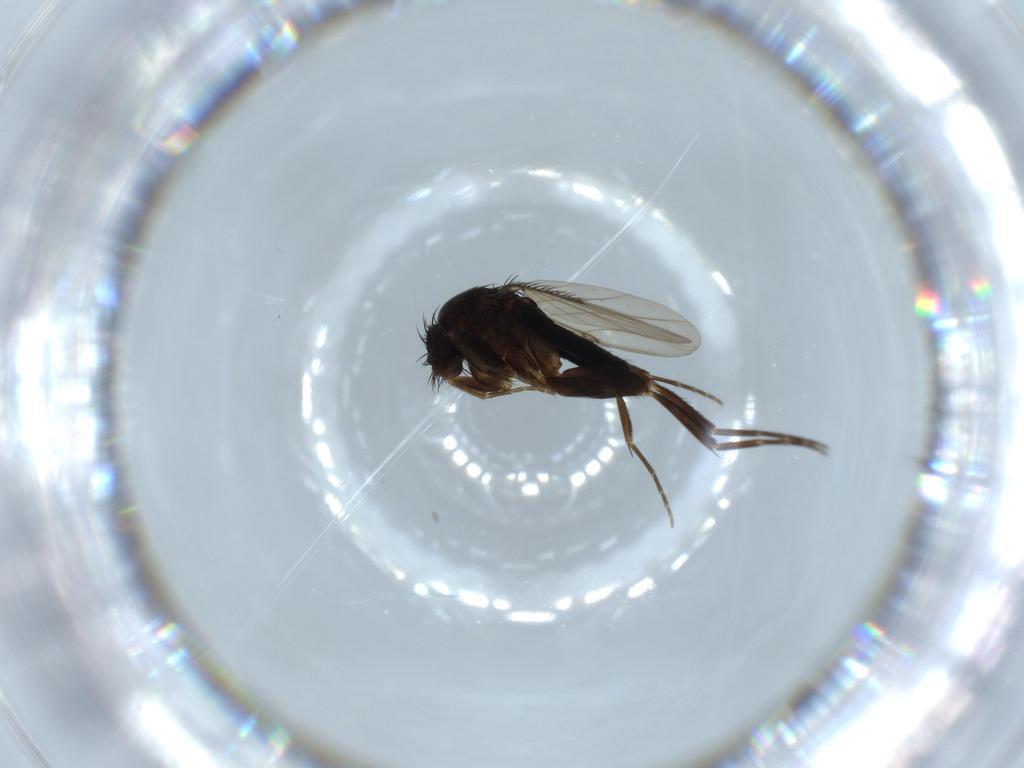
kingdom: Animalia
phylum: Arthropoda
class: Insecta
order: Diptera
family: Phoridae
